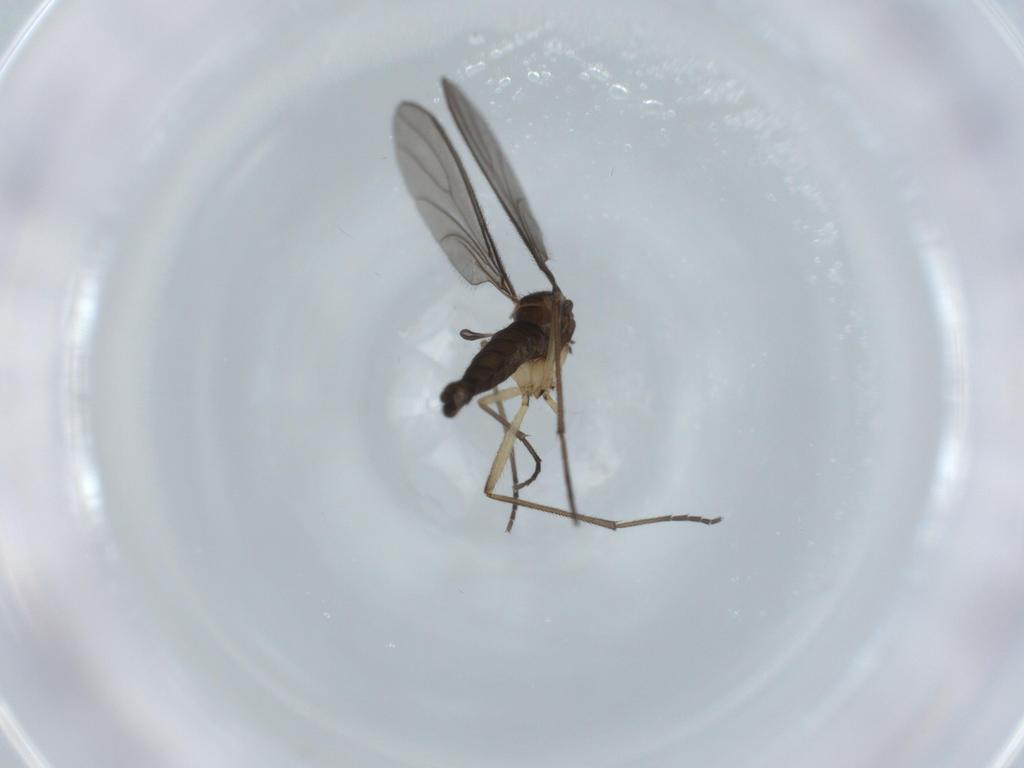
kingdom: Animalia
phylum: Arthropoda
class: Insecta
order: Diptera
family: Sciaridae
